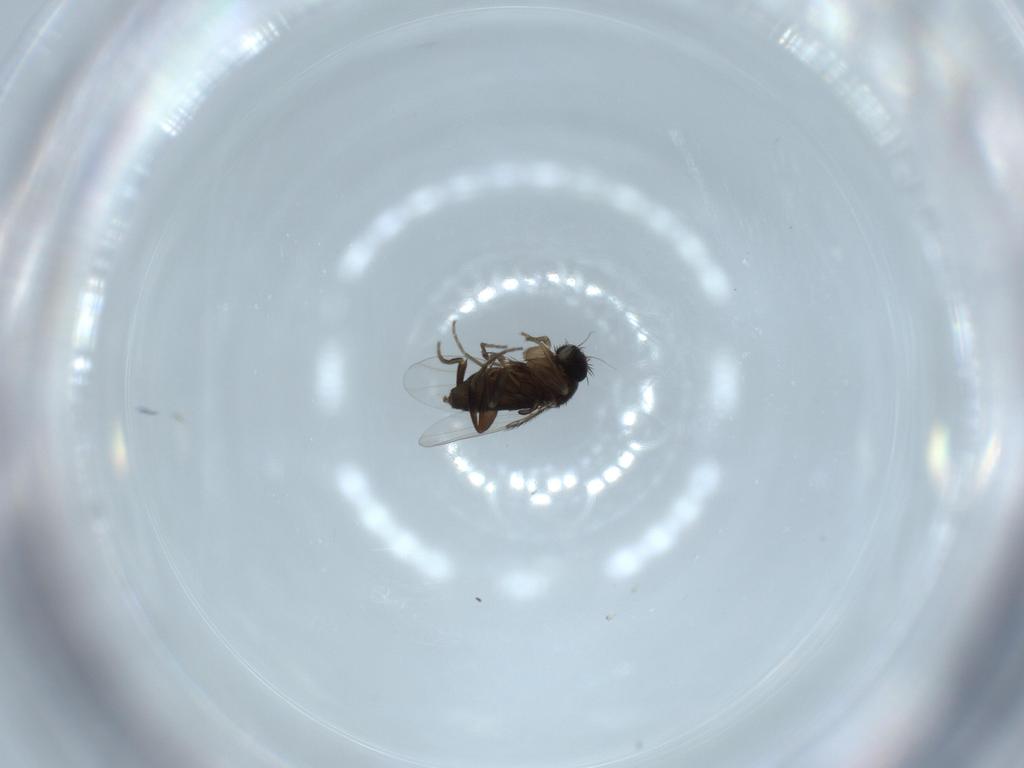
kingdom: Animalia
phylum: Arthropoda
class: Insecta
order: Diptera
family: Phoridae
